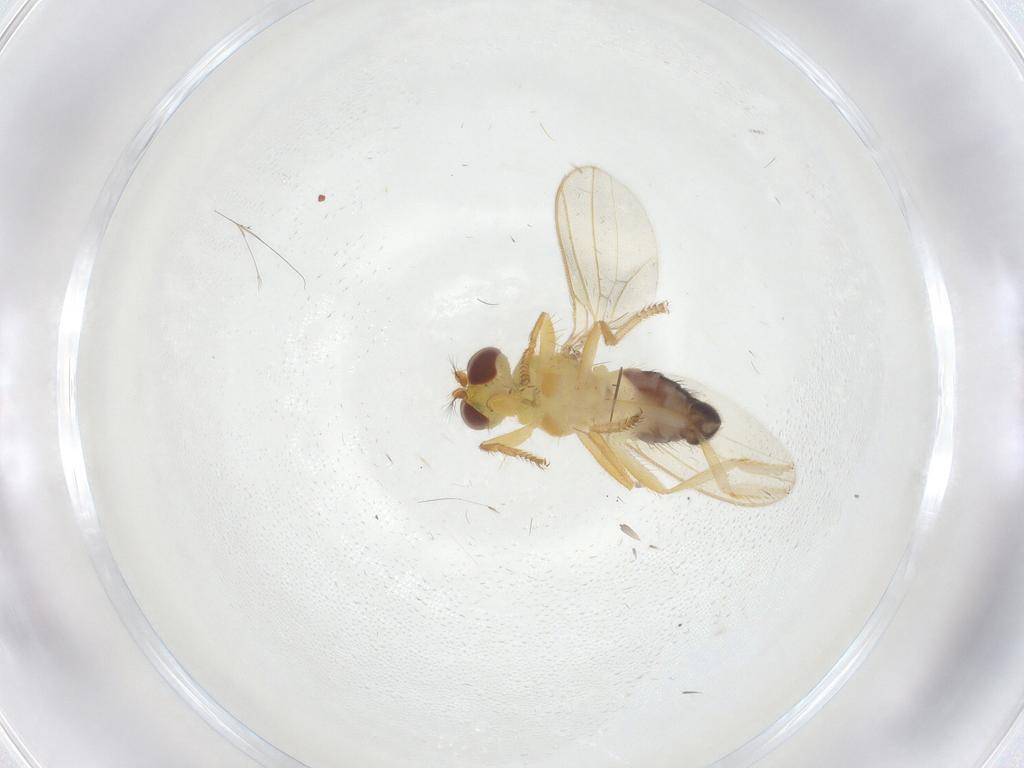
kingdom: Animalia
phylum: Arthropoda
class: Insecta
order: Diptera
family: Periscelididae
